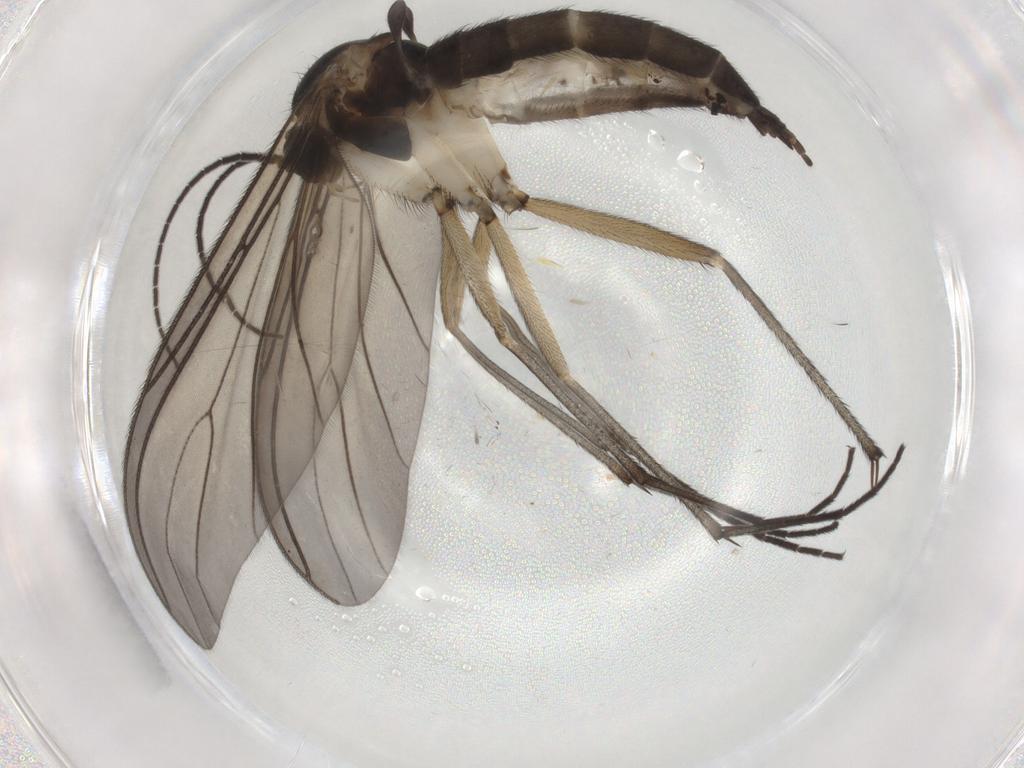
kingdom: Animalia
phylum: Arthropoda
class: Insecta
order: Diptera
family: Sciaridae
